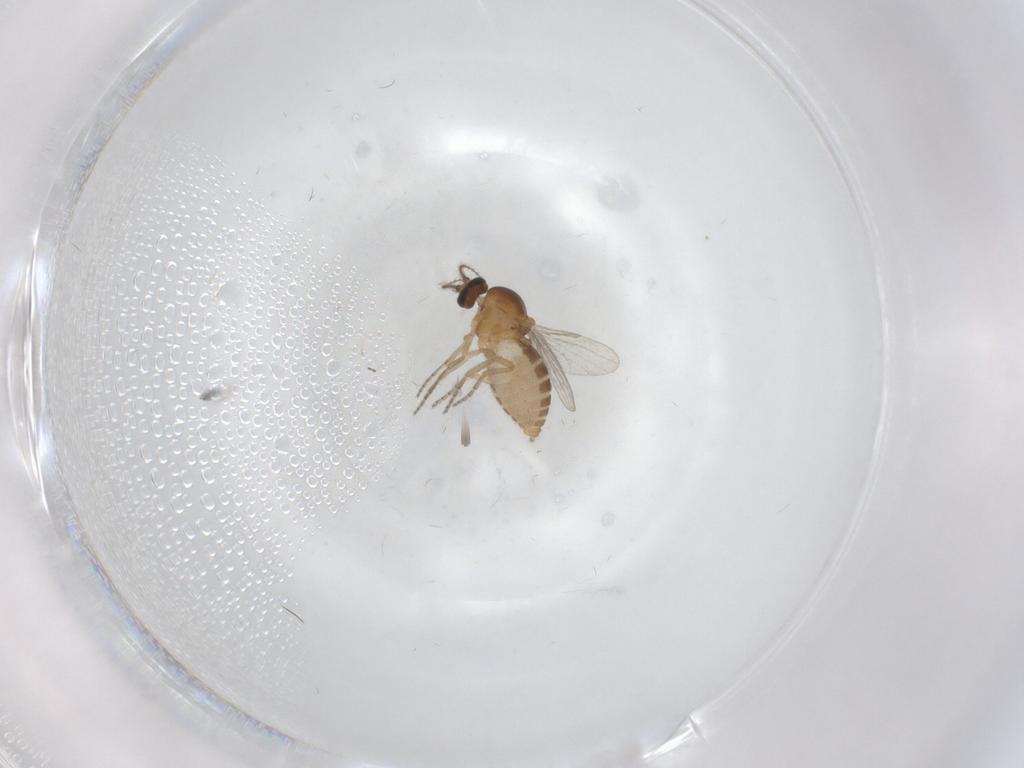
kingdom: Animalia
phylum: Arthropoda
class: Insecta
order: Diptera
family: Ceratopogonidae
